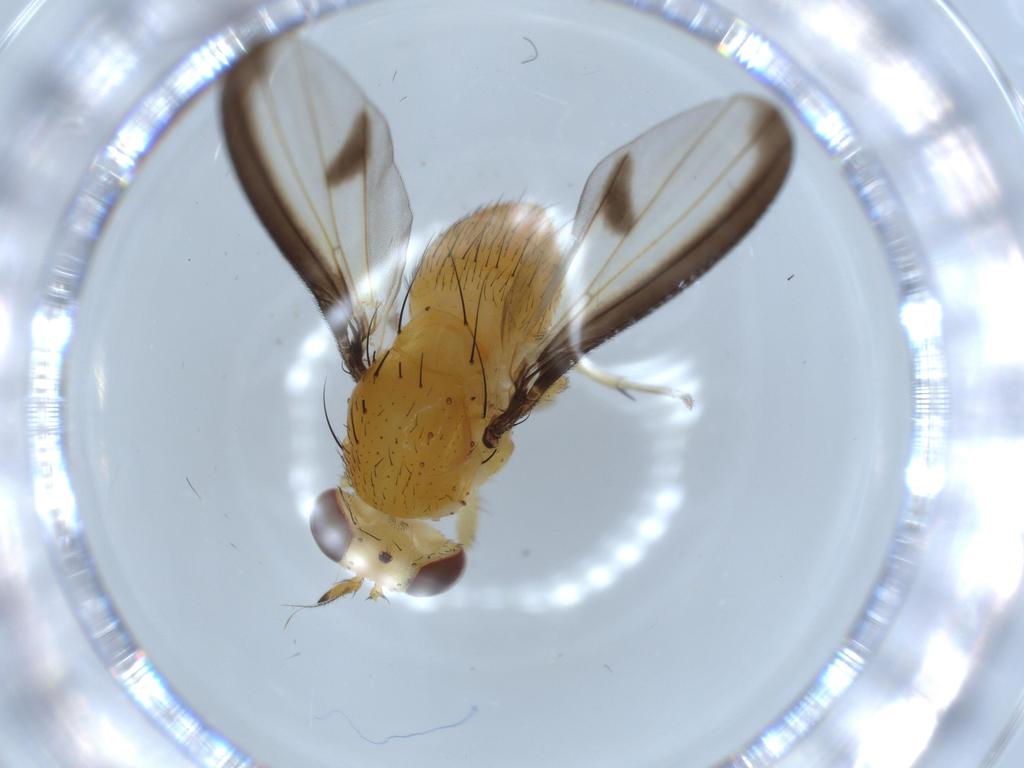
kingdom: Animalia
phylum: Arthropoda
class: Insecta
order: Diptera
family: Lauxaniidae
